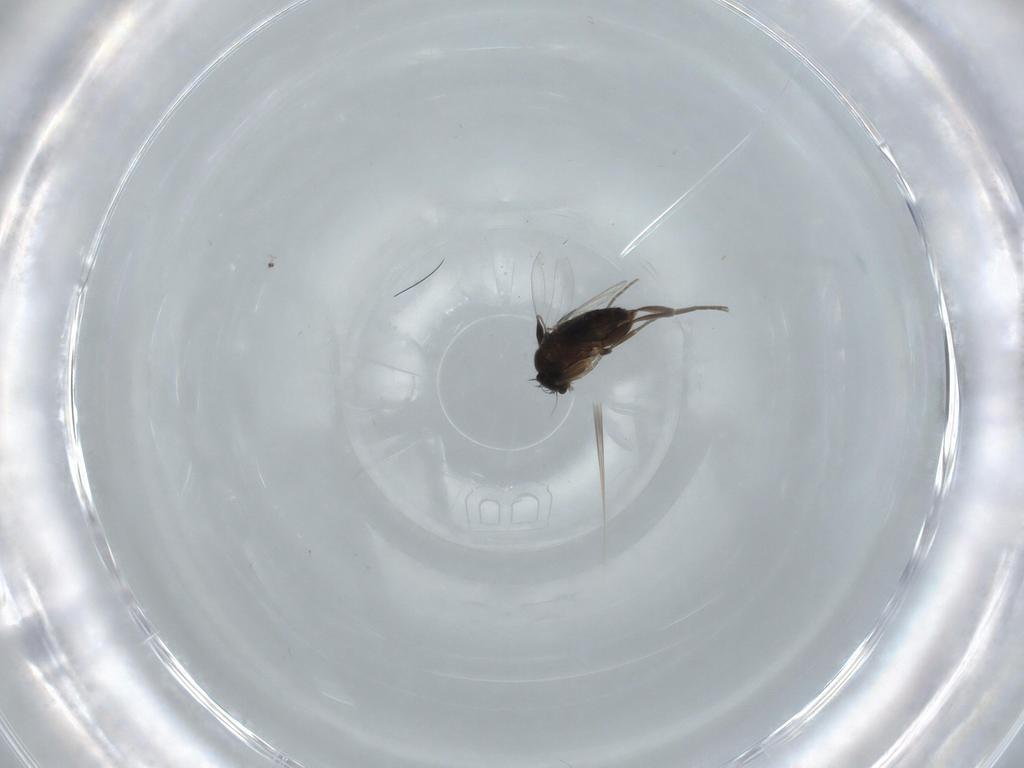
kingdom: Animalia
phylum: Arthropoda
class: Insecta
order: Diptera
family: Phoridae
